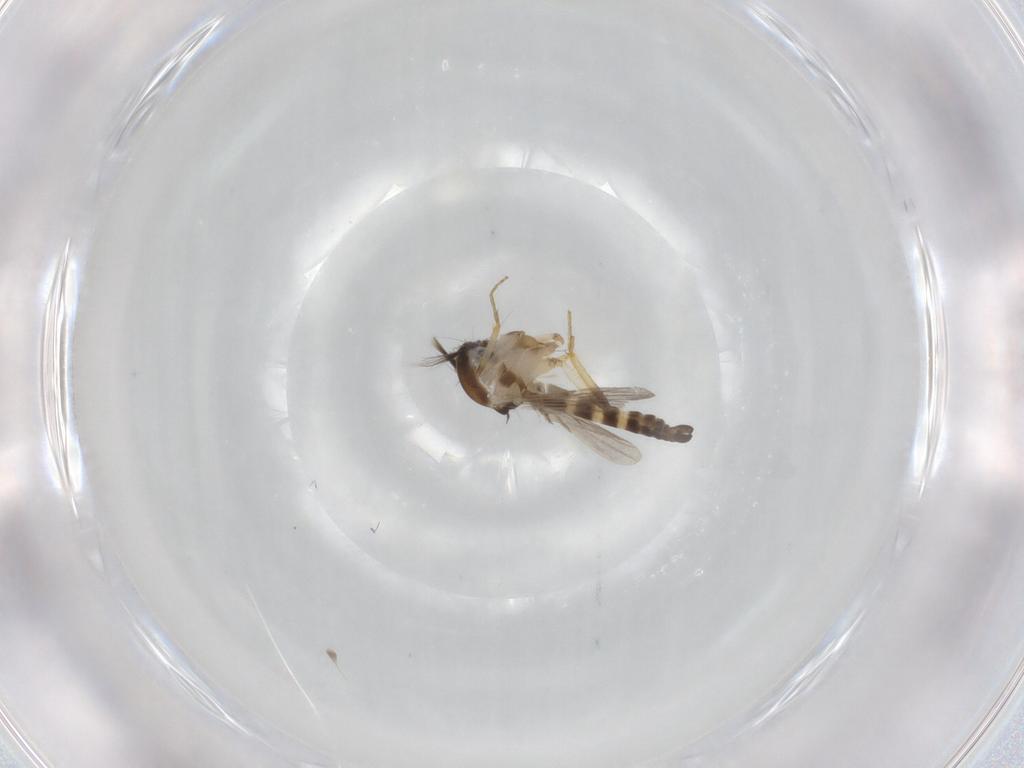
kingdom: Animalia
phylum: Arthropoda
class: Insecta
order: Diptera
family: Ceratopogonidae
